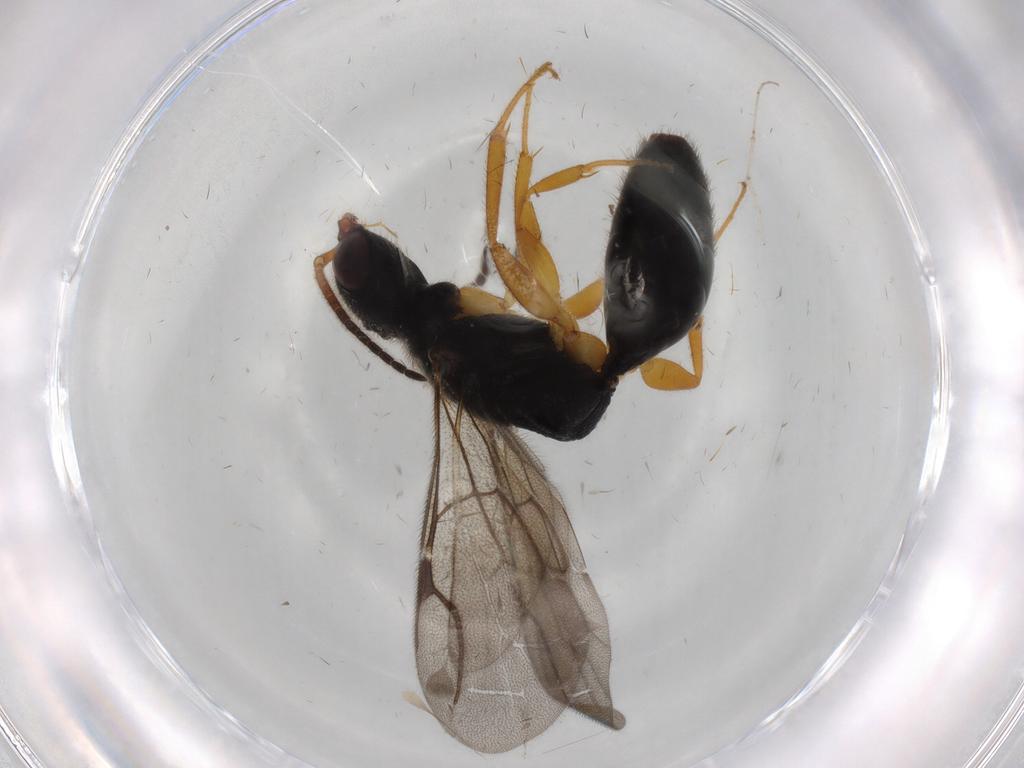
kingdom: Animalia
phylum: Arthropoda
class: Insecta
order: Hymenoptera
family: Bethylidae
